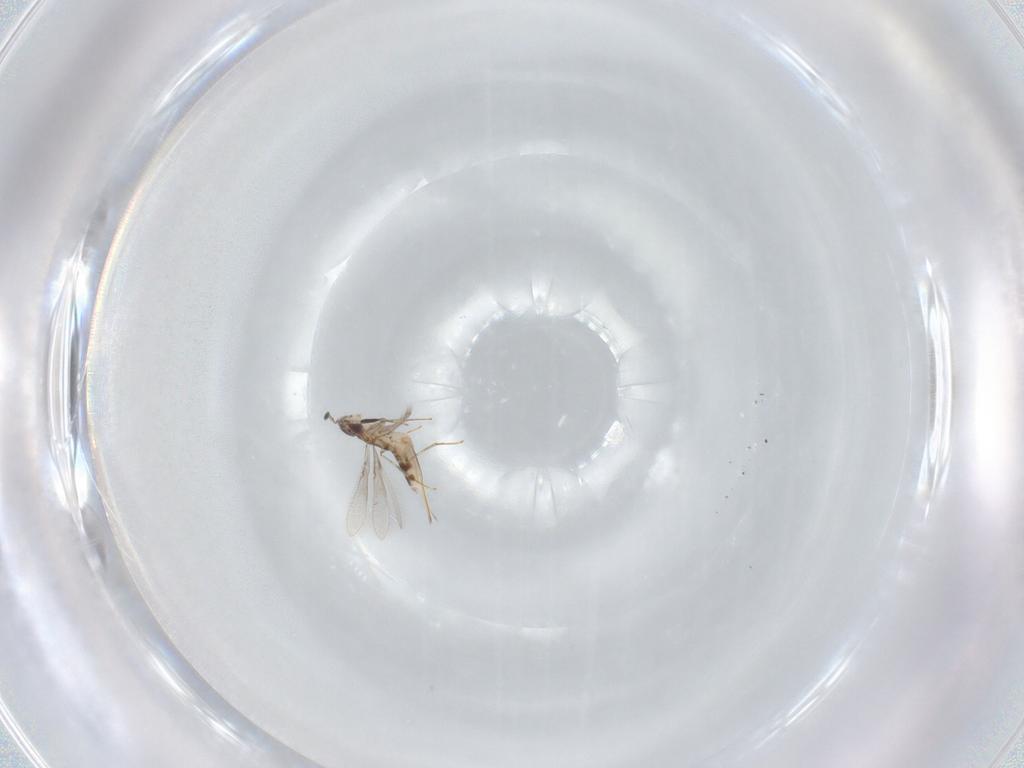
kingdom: Animalia
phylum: Arthropoda
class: Insecta
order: Hymenoptera
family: Mymaridae
